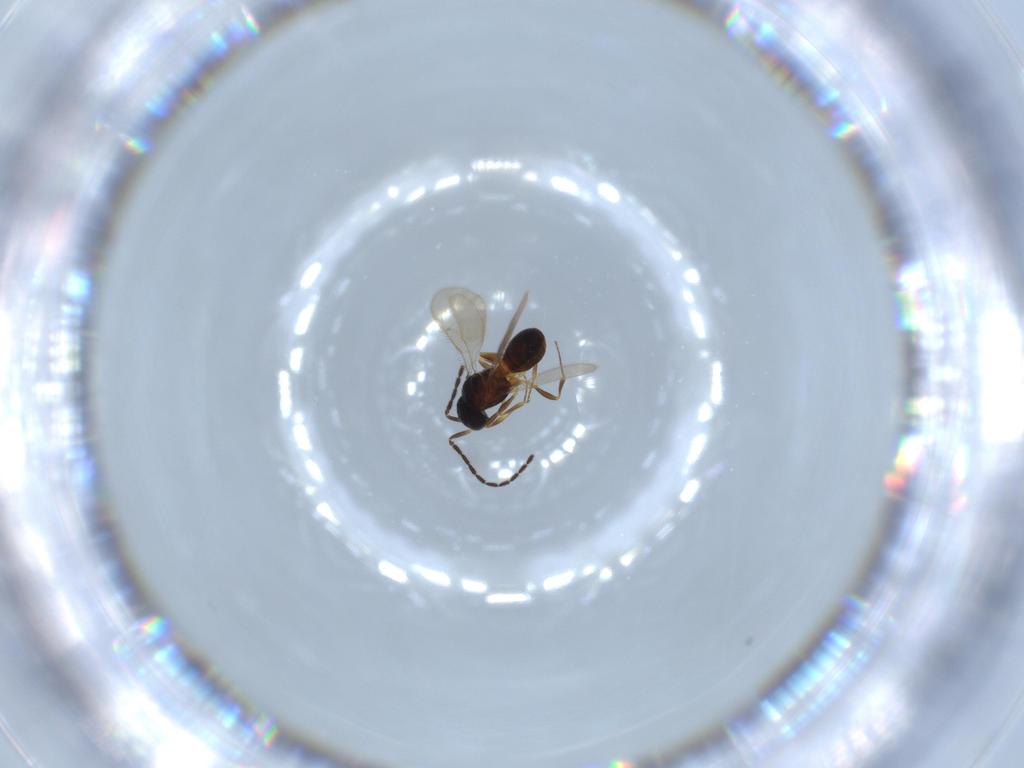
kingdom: Animalia
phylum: Arthropoda
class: Insecta
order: Hymenoptera
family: Scelionidae
